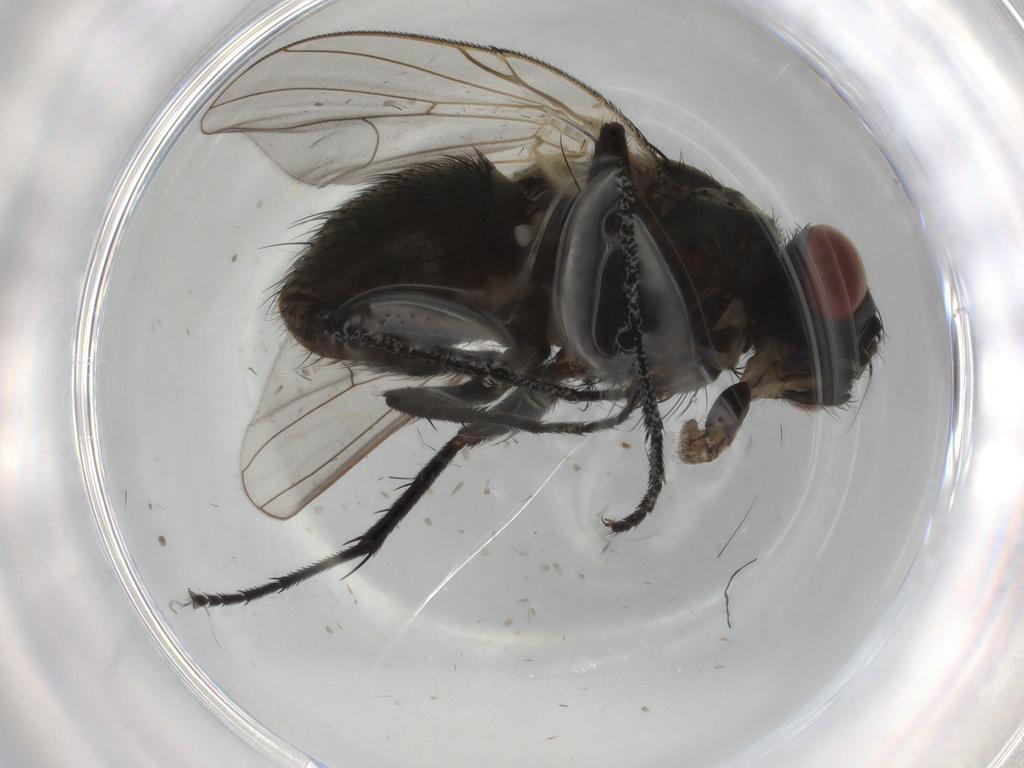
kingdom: Animalia
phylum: Arthropoda
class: Insecta
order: Diptera
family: Muscidae
